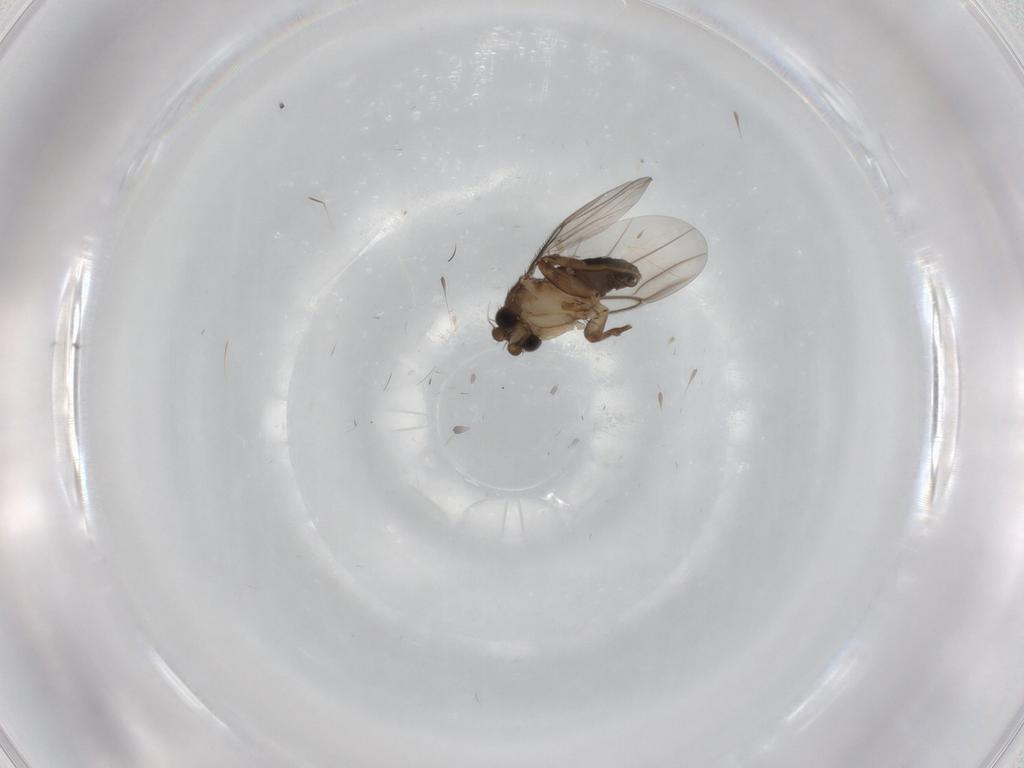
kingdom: Animalia
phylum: Arthropoda
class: Insecta
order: Diptera
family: Phoridae
